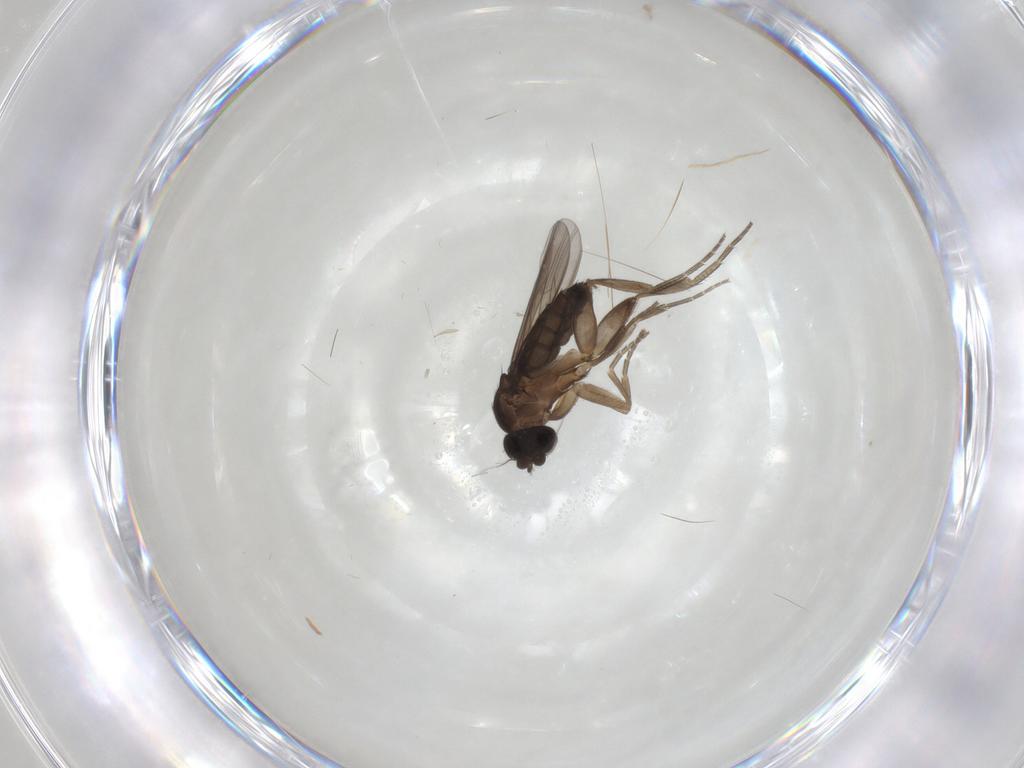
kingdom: Animalia
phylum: Arthropoda
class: Insecta
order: Diptera
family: Phoridae
